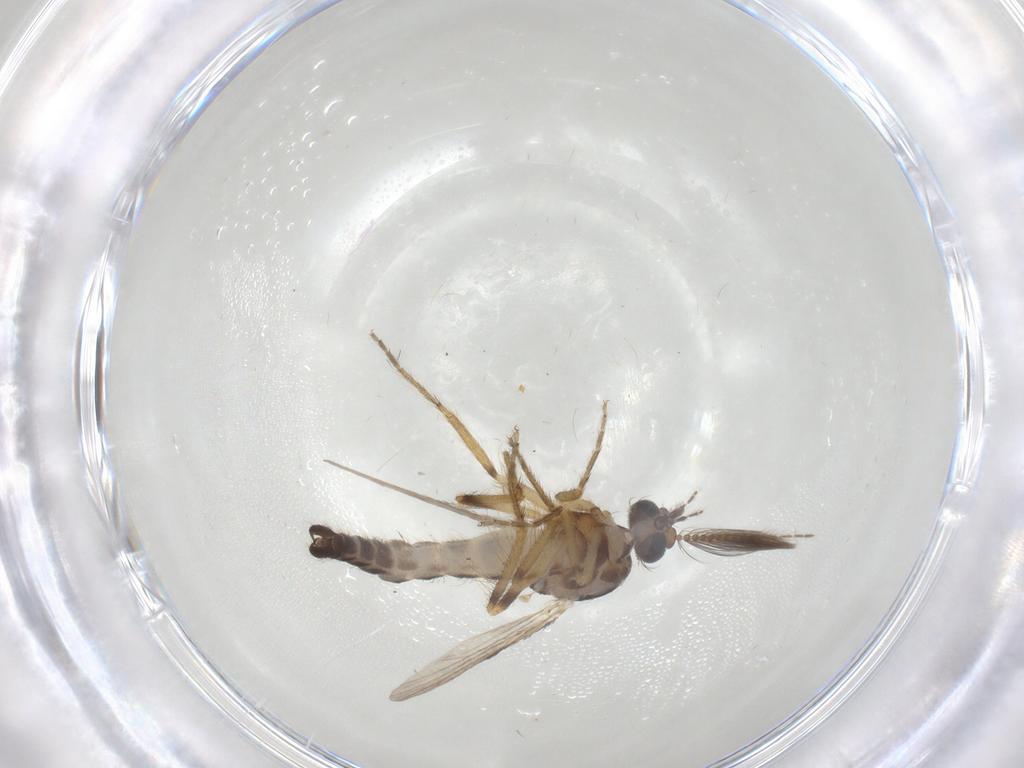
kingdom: Animalia
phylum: Arthropoda
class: Insecta
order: Diptera
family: Ceratopogonidae
